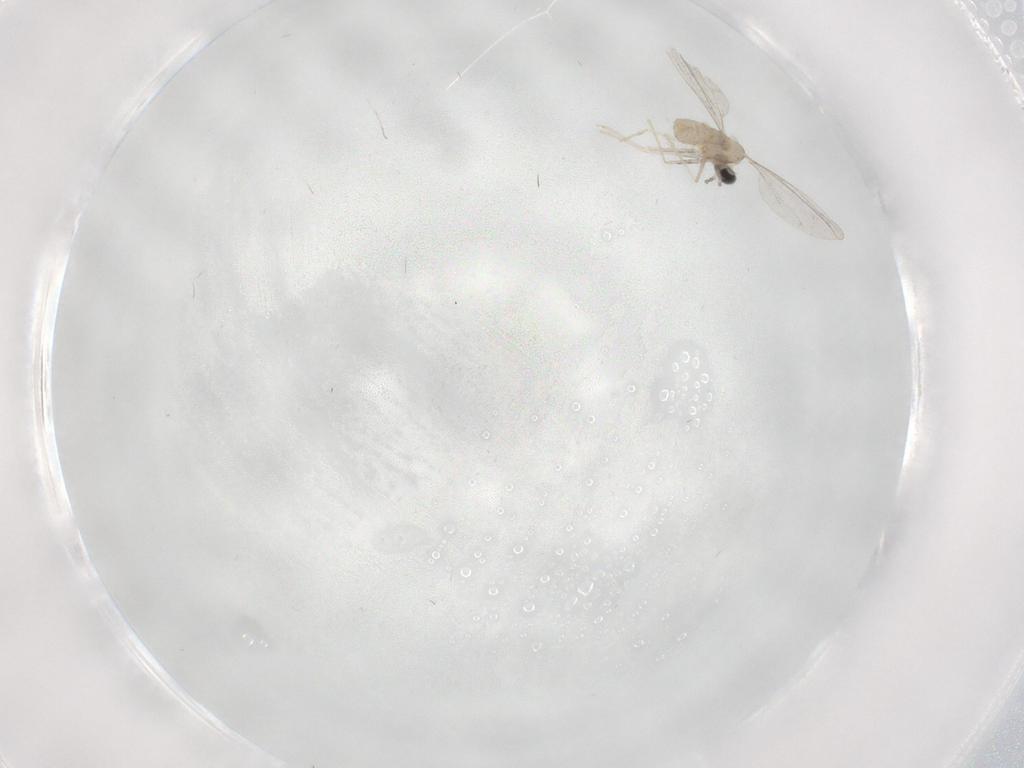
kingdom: Animalia
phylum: Arthropoda
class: Insecta
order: Diptera
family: Cecidomyiidae
